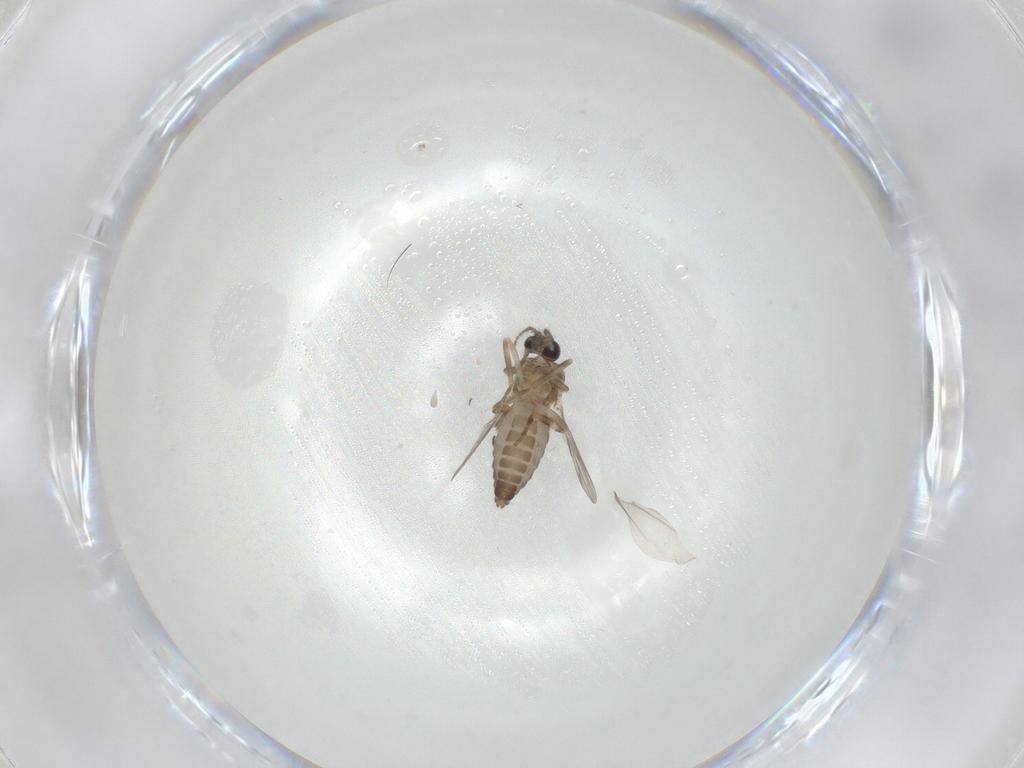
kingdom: Animalia
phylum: Arthropoda
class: Insecta
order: Diptera
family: Ceratopogonidae
